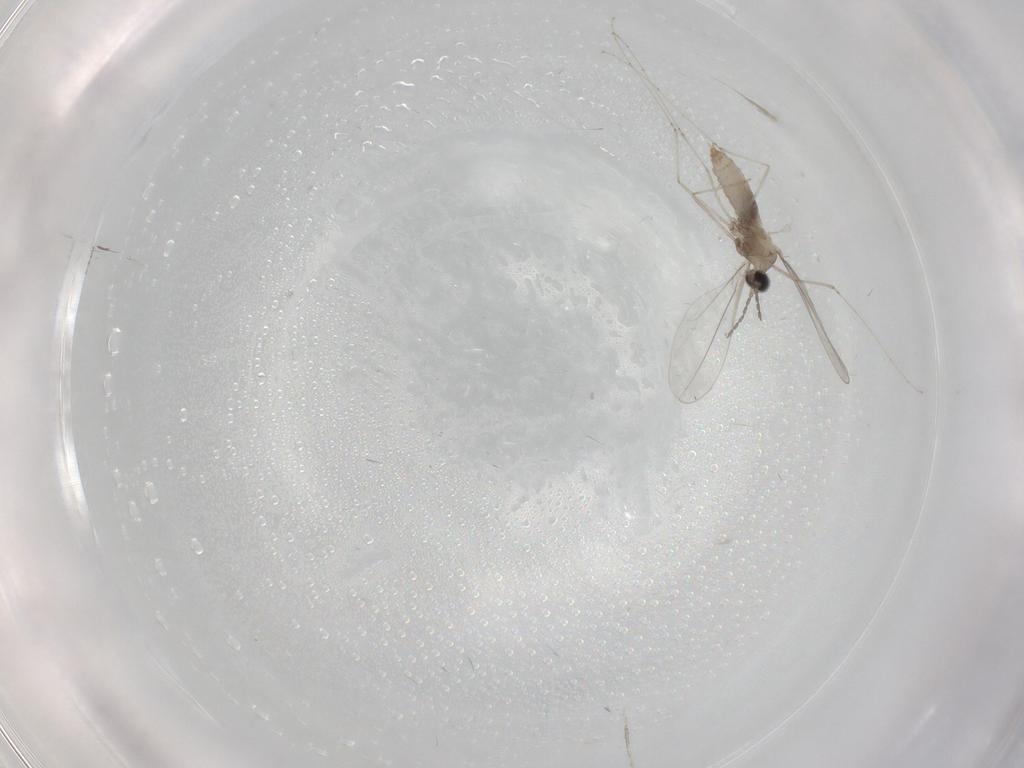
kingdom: Animalia
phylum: Arthropoda
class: Insecta
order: Diptera
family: Cecidomyiidae
